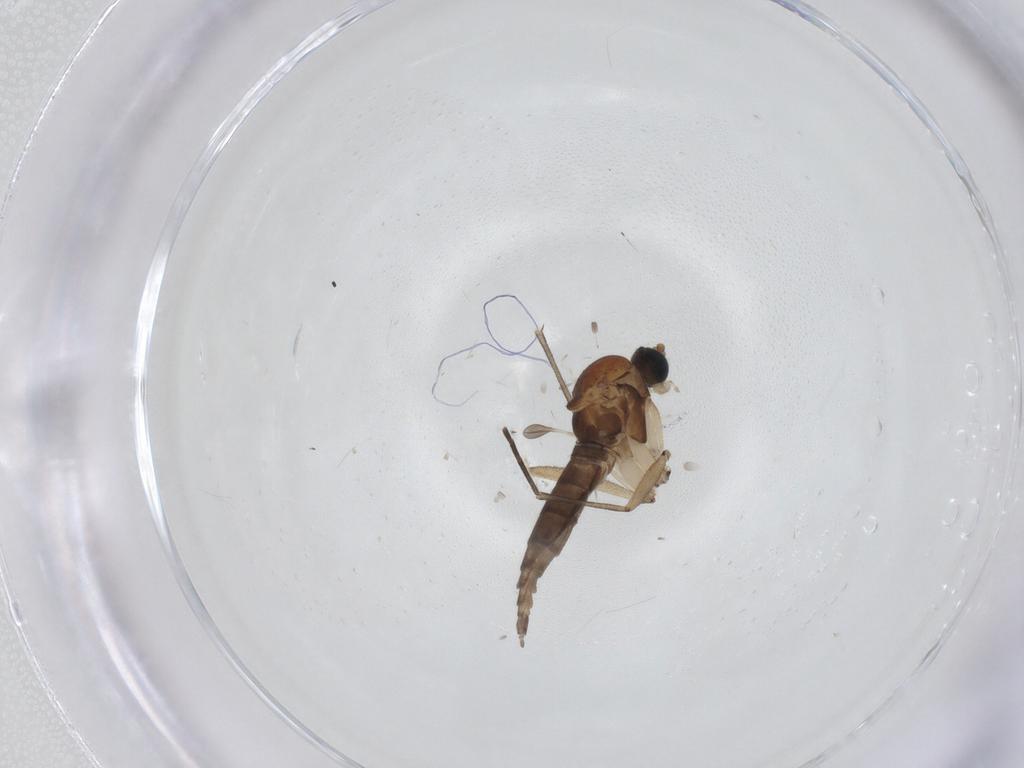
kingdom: Animalia
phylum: Arthropoda
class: Insecta
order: Diptera
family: Sciaridae
